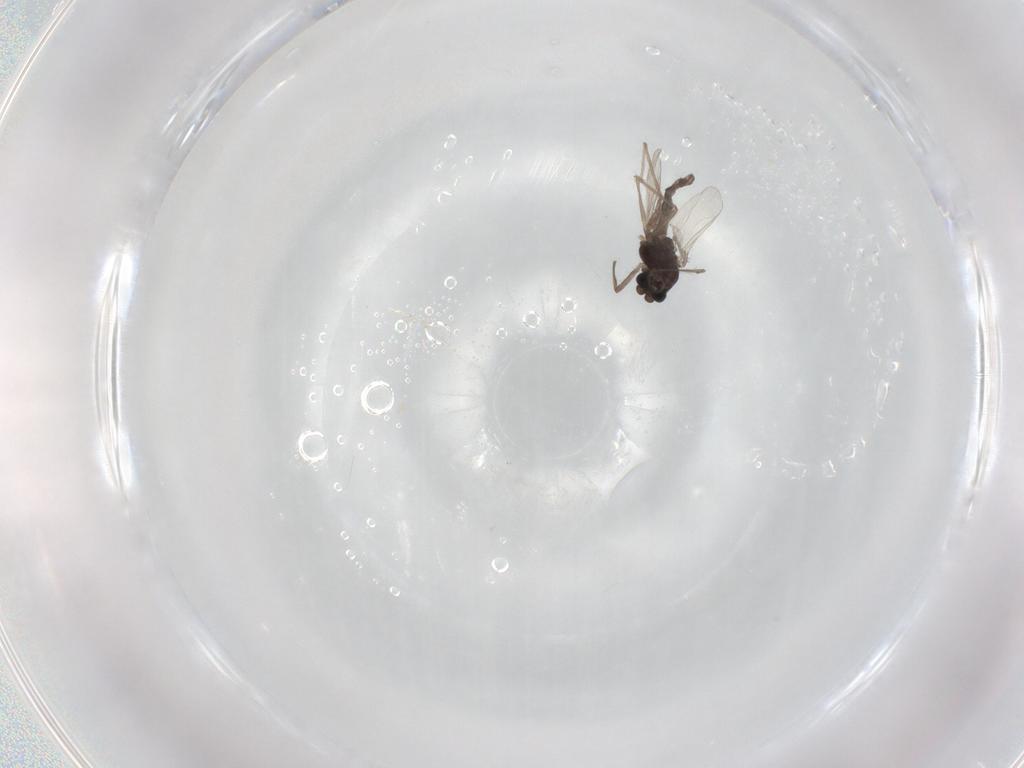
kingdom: Animalia
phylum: Arthropoda
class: Insecta
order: Diptera
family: Chironomidae
